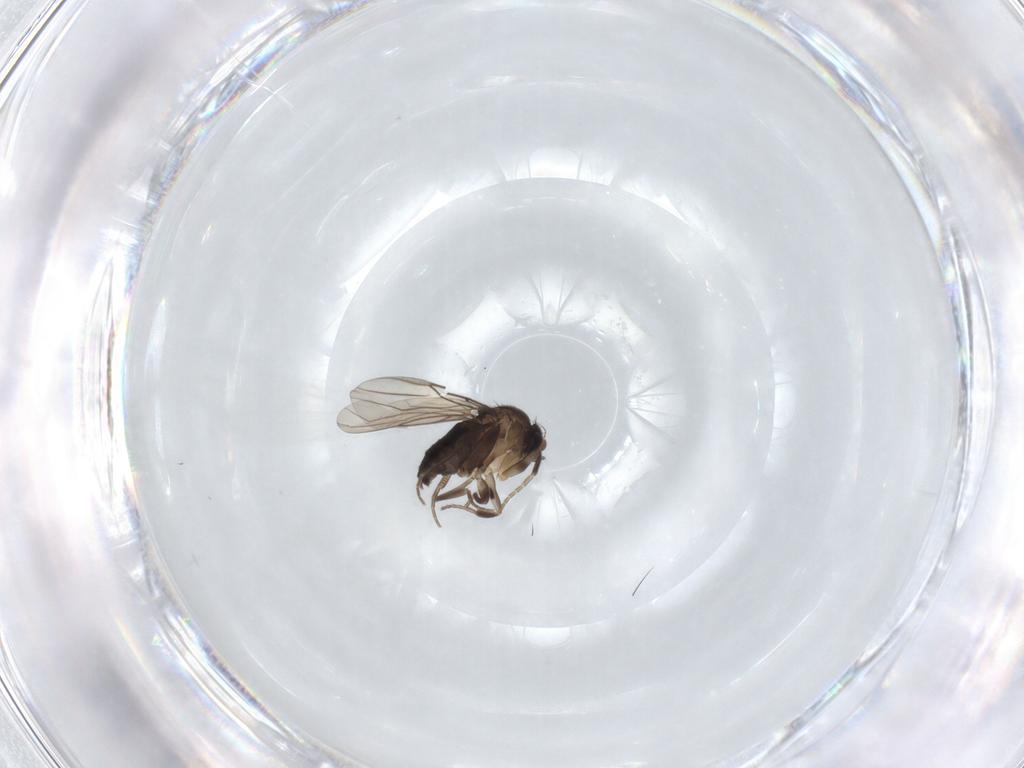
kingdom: Animalia
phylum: Arthropoda
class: Insecta
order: Diptera
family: Phoridae
